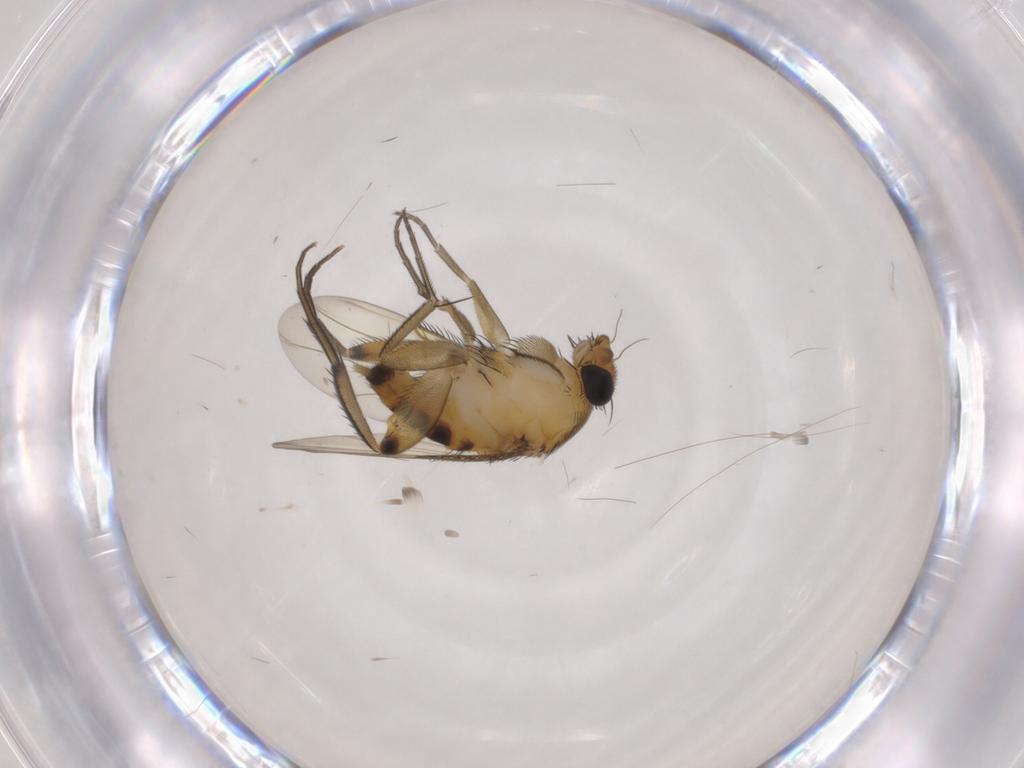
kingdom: Animalia
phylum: Arthropoda
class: Insecta
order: Diptera
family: Phoridae
